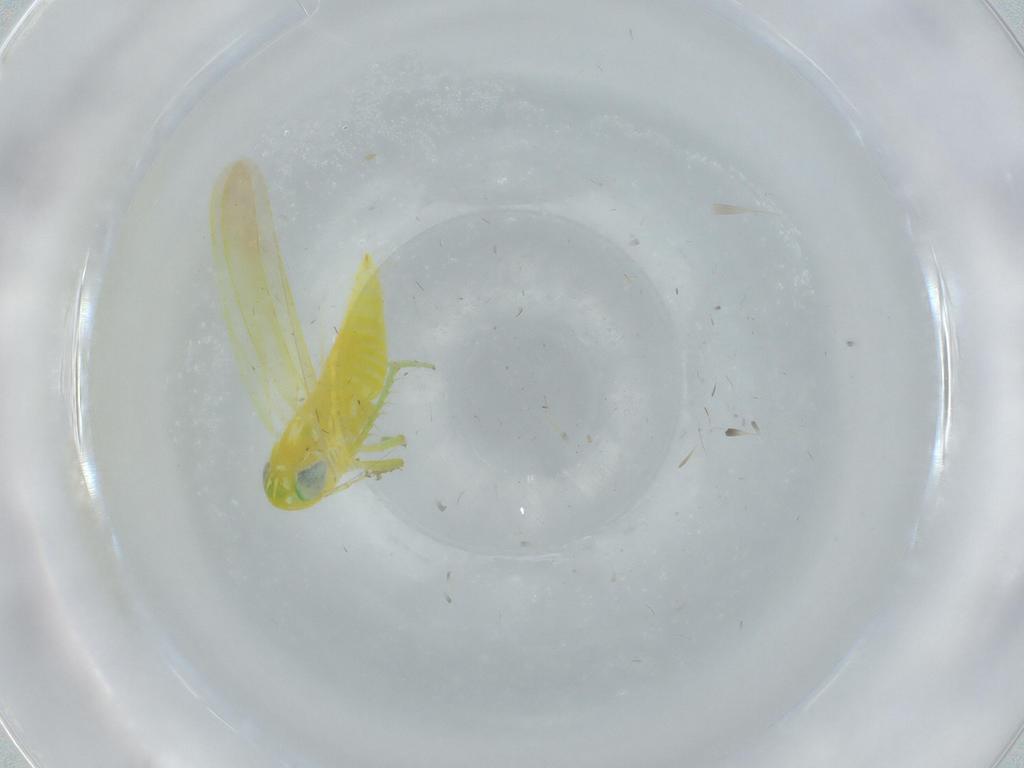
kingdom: Animalia
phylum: Arthropoda
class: Insecta
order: Hemiptera
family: Cicadellidae
